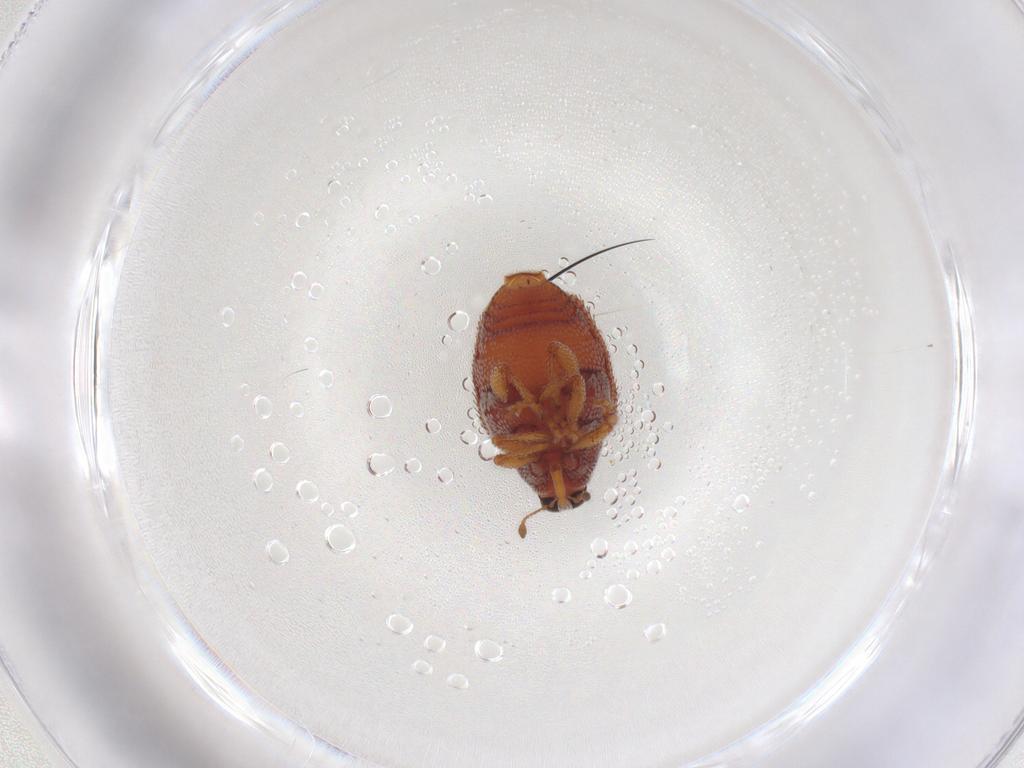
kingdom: Animalia
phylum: Arthropoda
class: Insecta
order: Coleoptera
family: Curculionidae
